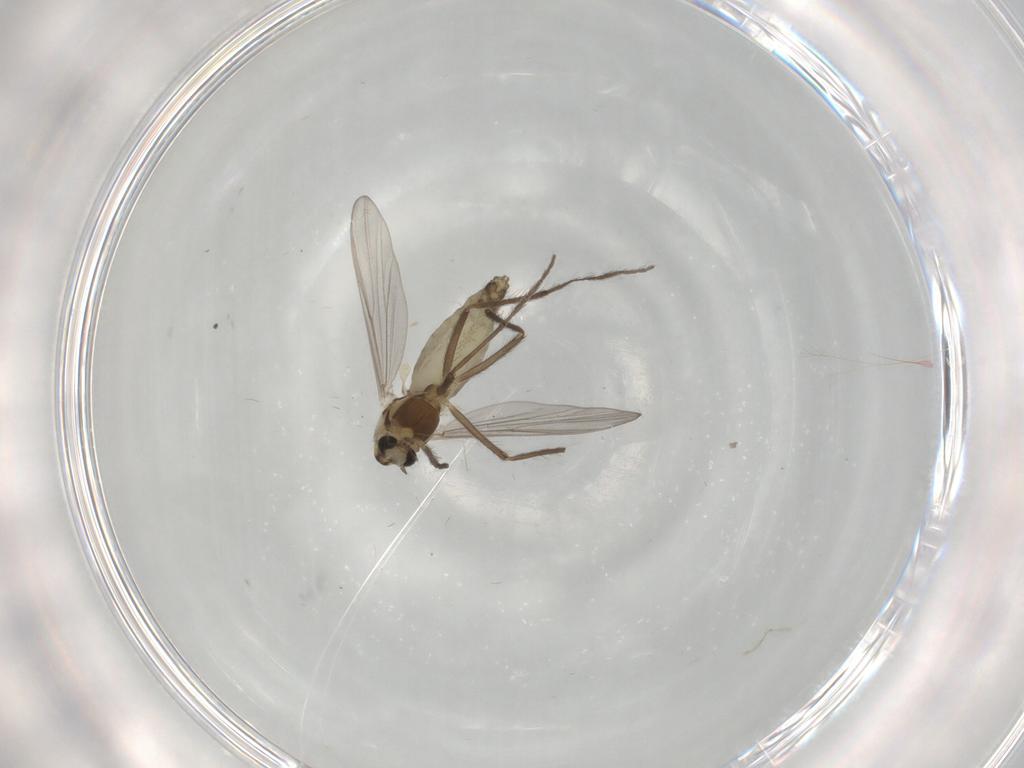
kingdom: Animalia
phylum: Arthropoda
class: Insecta
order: Diptera
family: Chironomidae
